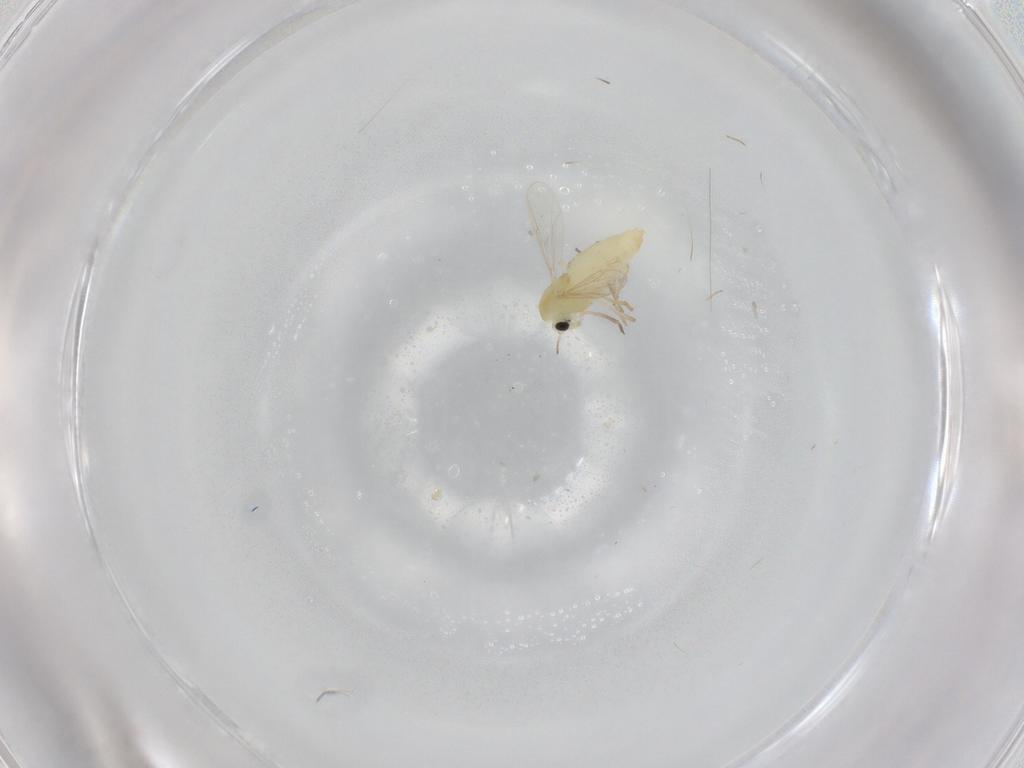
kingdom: Animalia
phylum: Arthropoda
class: Insecta
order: Diptera
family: Chironomidae
